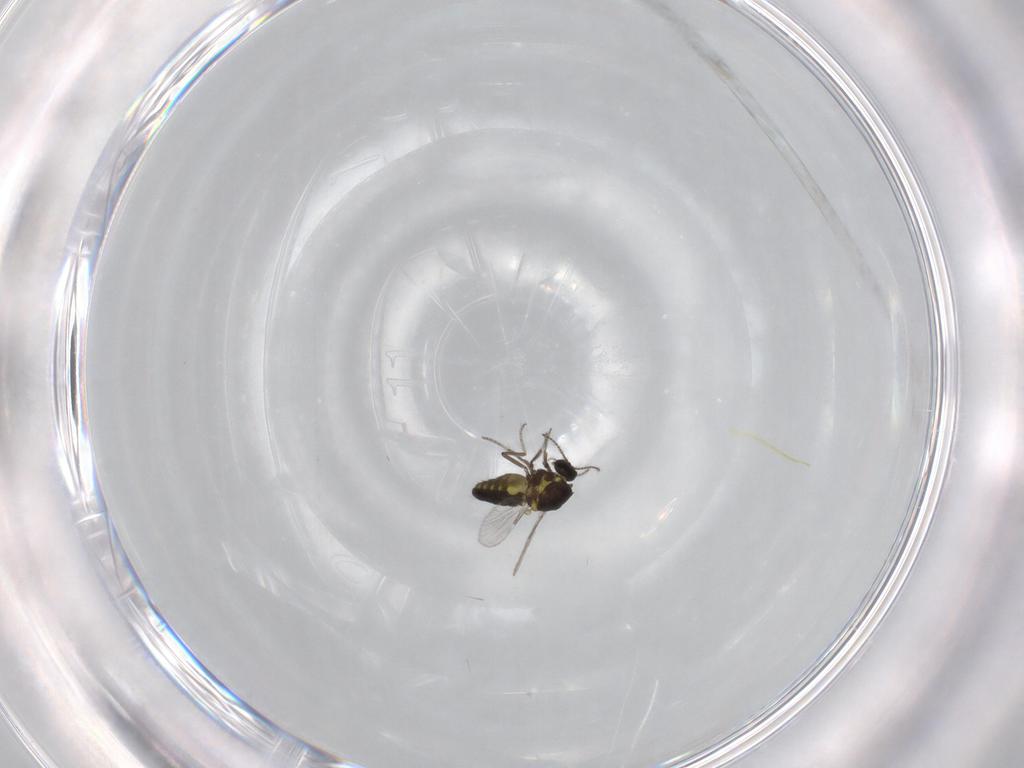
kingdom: Animalia
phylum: Arthropoda
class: Insecta
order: Diptera
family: Ceratopogonidae
